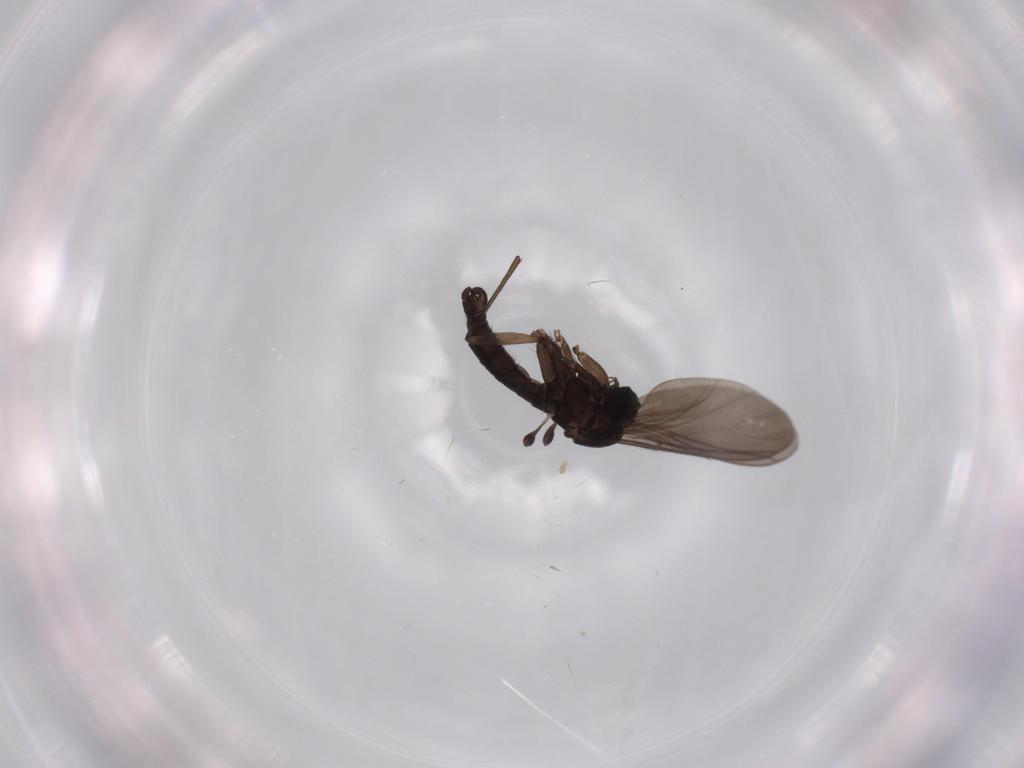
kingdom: Animalia
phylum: Arthropoda
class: Insecta
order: Diptera
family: Sciaridae
